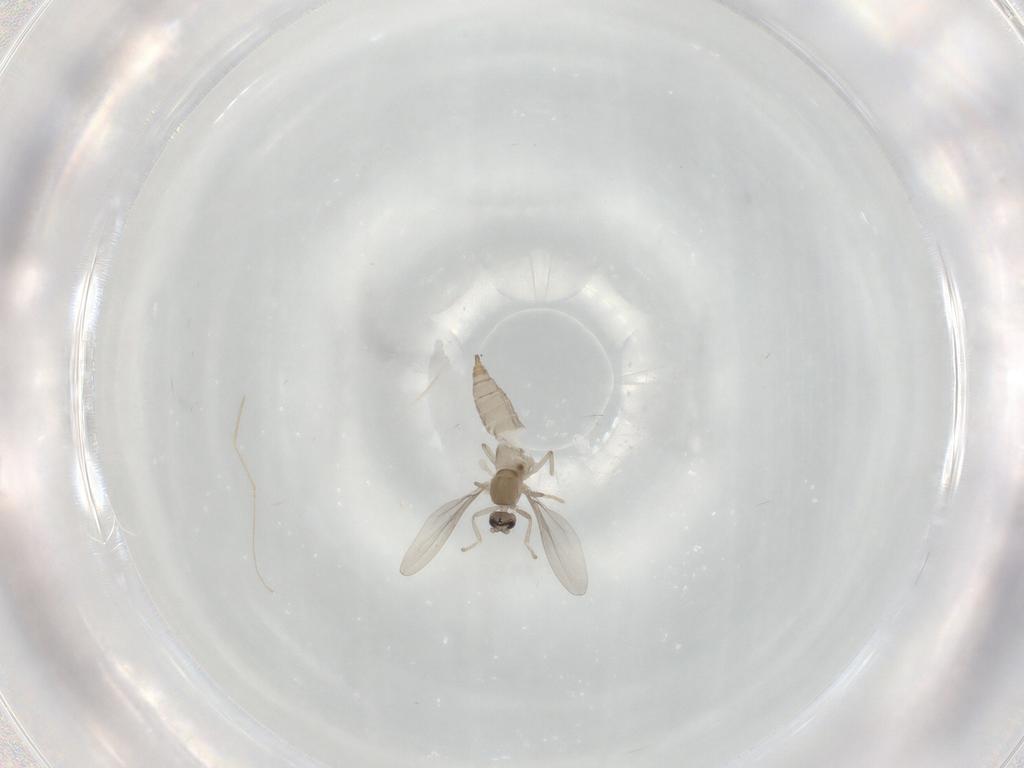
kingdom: Animalia
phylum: Arthropoda
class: Insecta
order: Diptera
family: Cecidomyiidae
